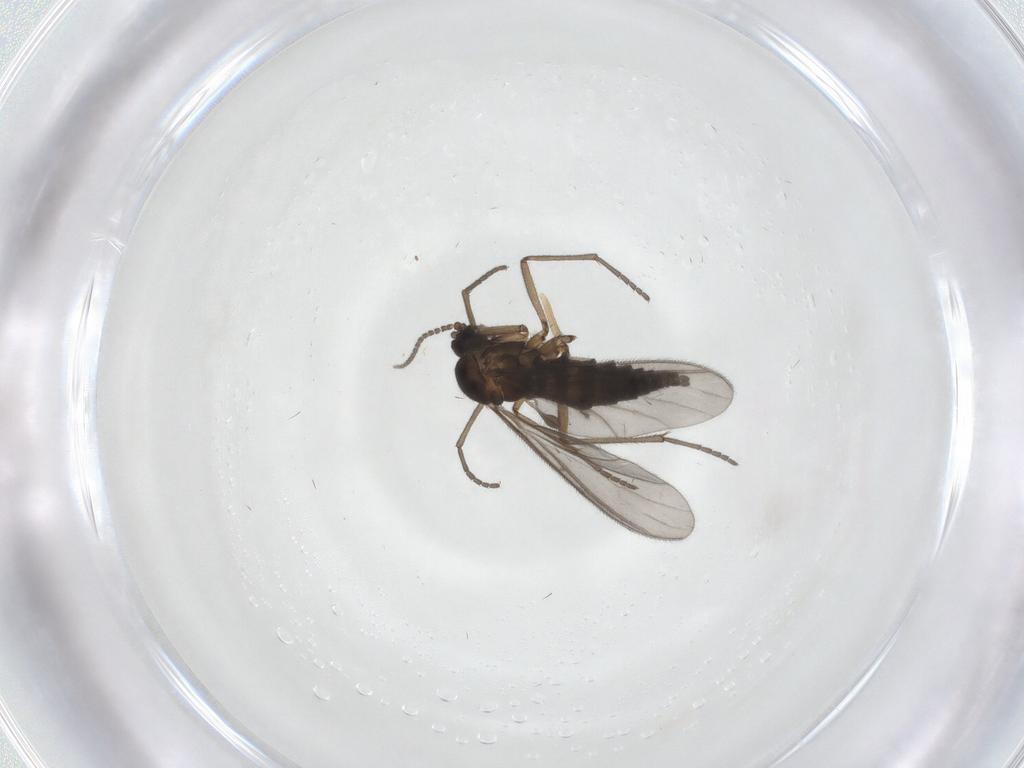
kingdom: Animalia
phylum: Arthropoda
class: Insecta
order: Diptera
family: Sciaridae
